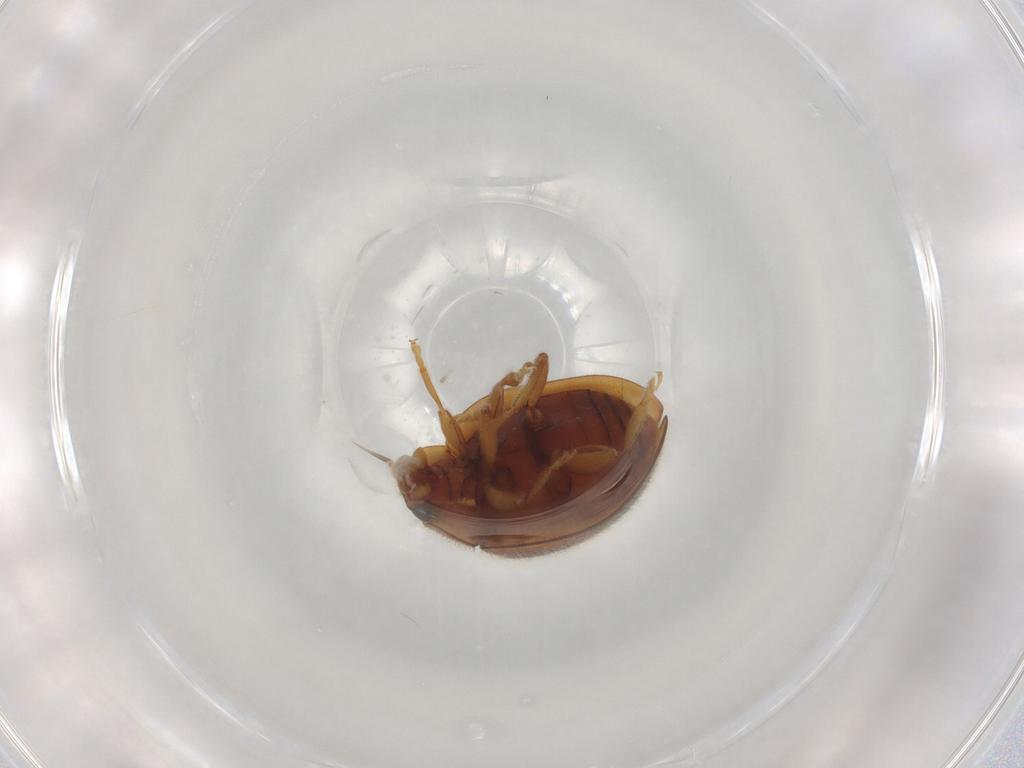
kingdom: Animalia
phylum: Arthropoda
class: Insecta
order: Coleoptera
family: Coccinellidae
